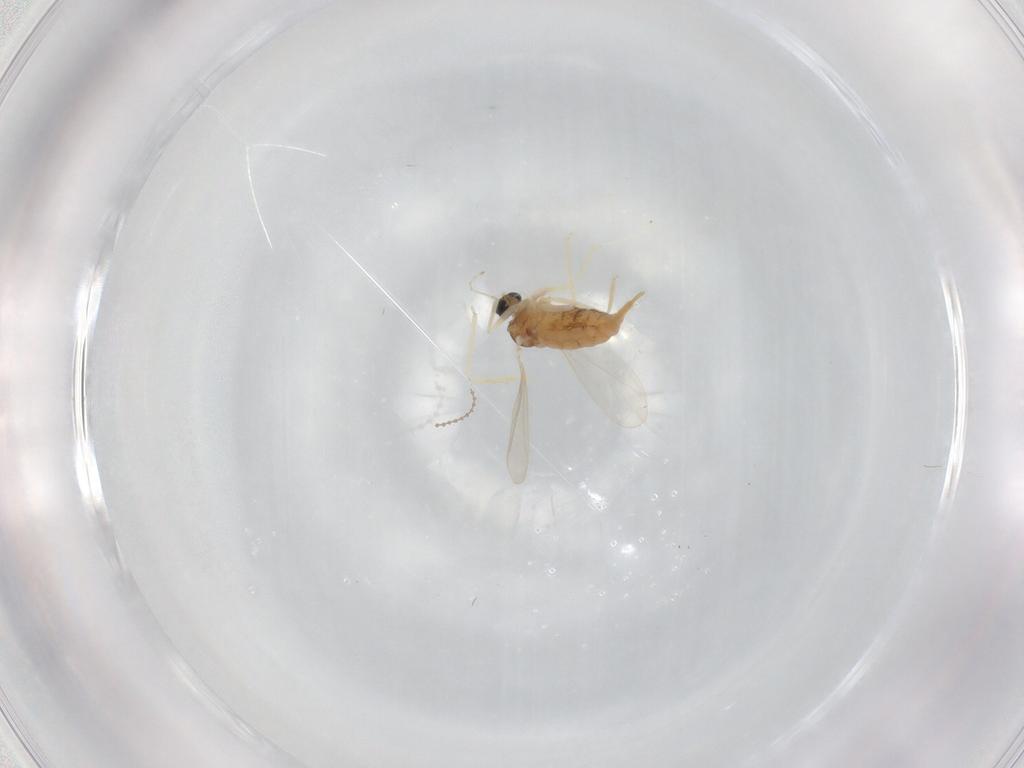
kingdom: Animalia
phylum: Arthropoda
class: Insecta
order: Diptera
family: Cecidomyiidae
